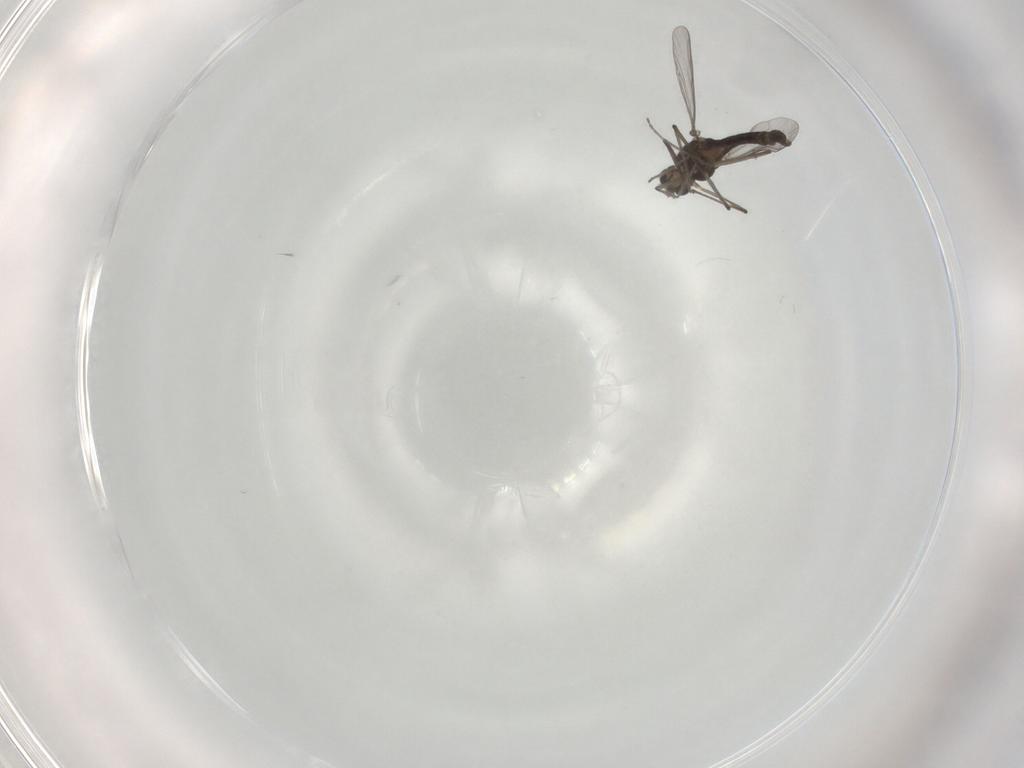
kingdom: Animalia
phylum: Arthropoda
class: Insecta
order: Diptera
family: Chironomidae
